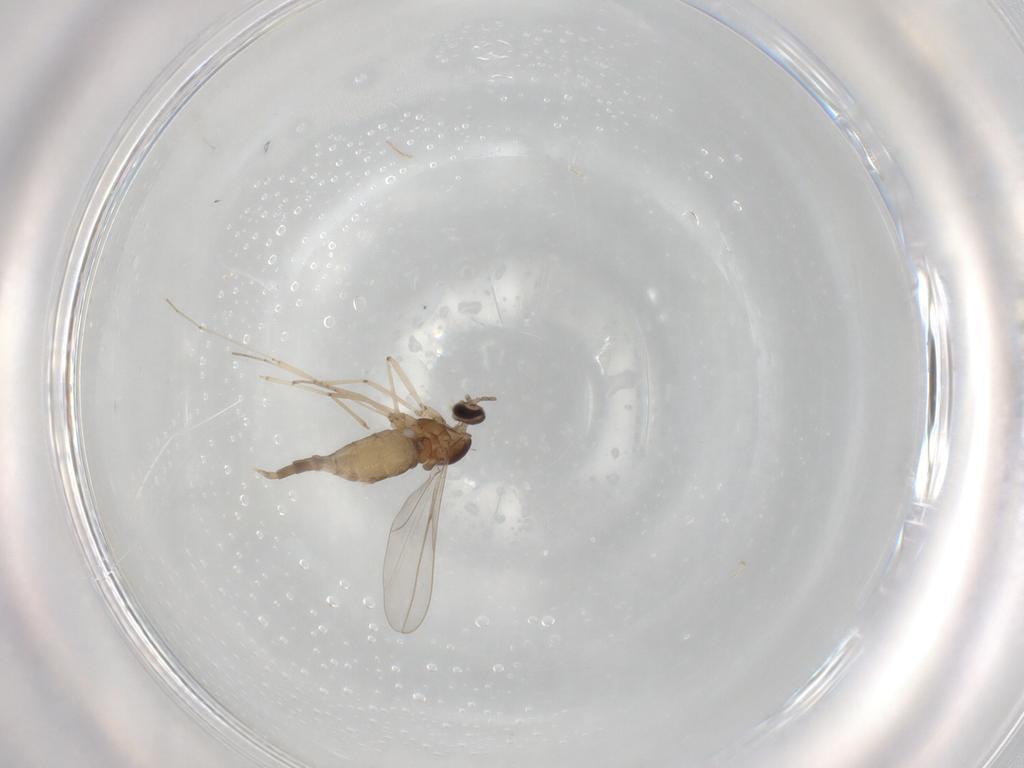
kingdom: Animalia
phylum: Arthropoda
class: Insecta
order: Diptera
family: Cecidomyiidae
